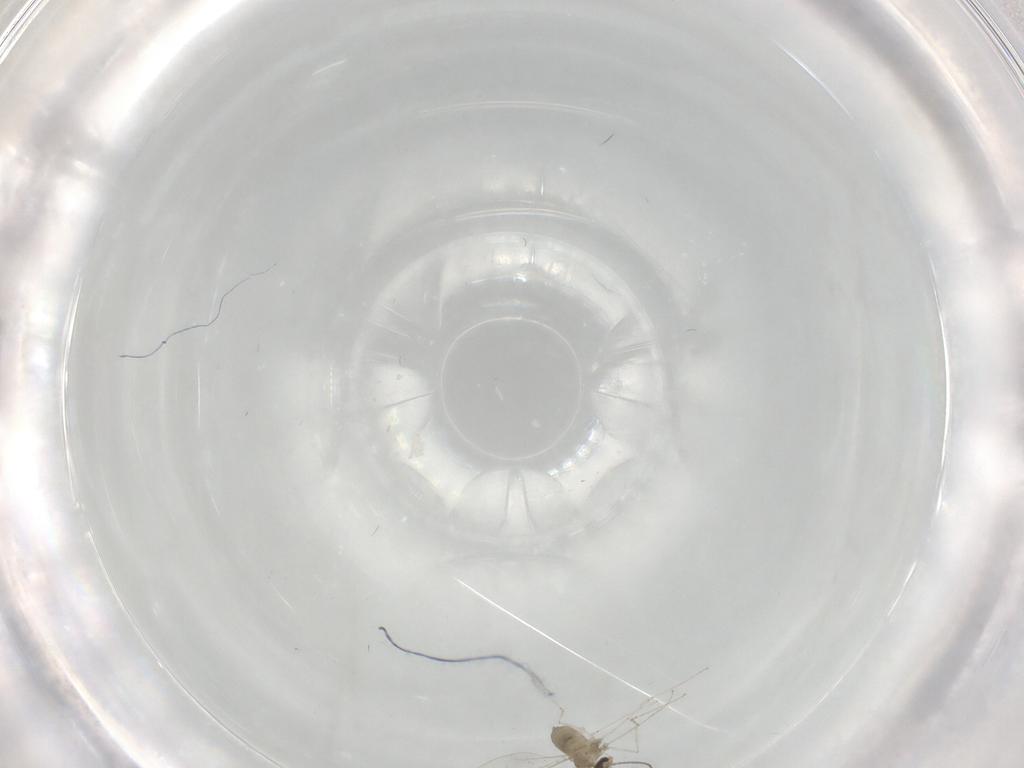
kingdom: Animalia
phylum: Arthropoda
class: Insecta
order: Diptera
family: Cecidomyiidae
